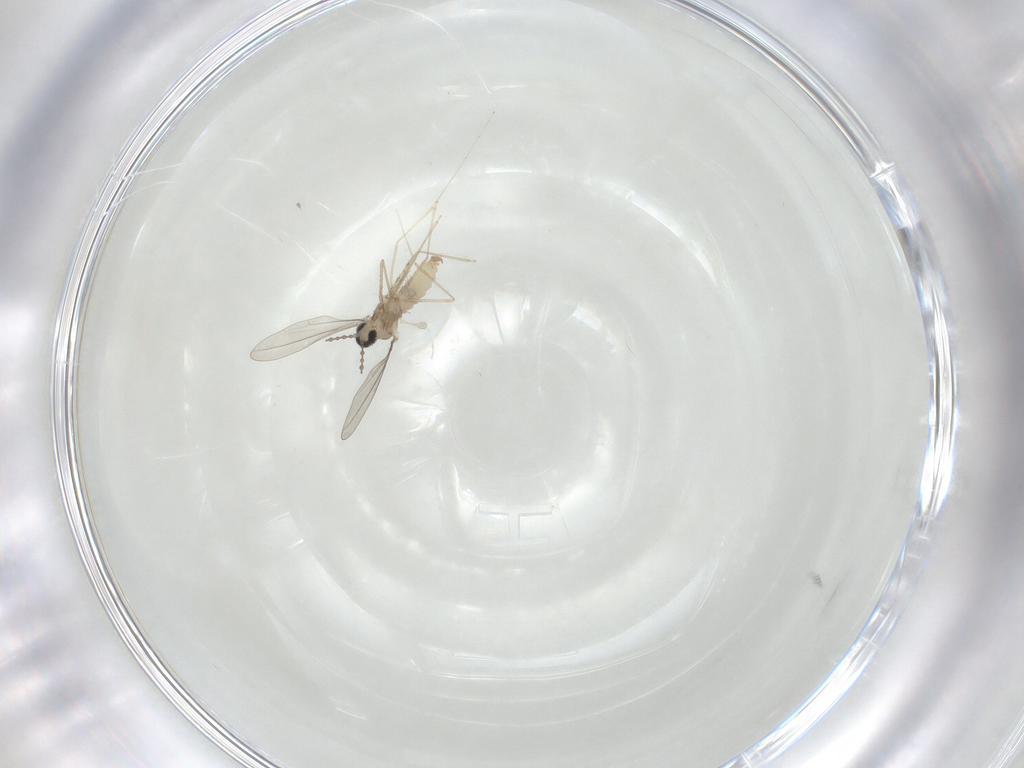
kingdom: Animalia
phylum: Arthropoda
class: Insecta
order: Diptera
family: Cecidomyiidae
